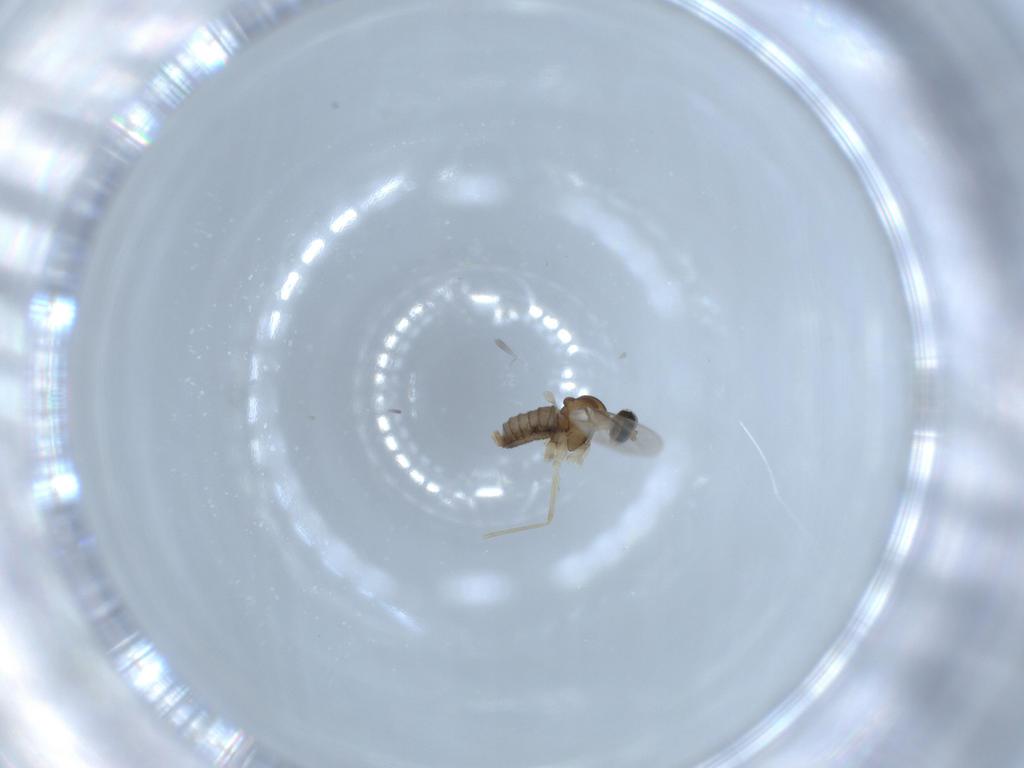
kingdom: Animalia
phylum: Arthropoda
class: Insecta
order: Diptera
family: Cecidomyiidae
